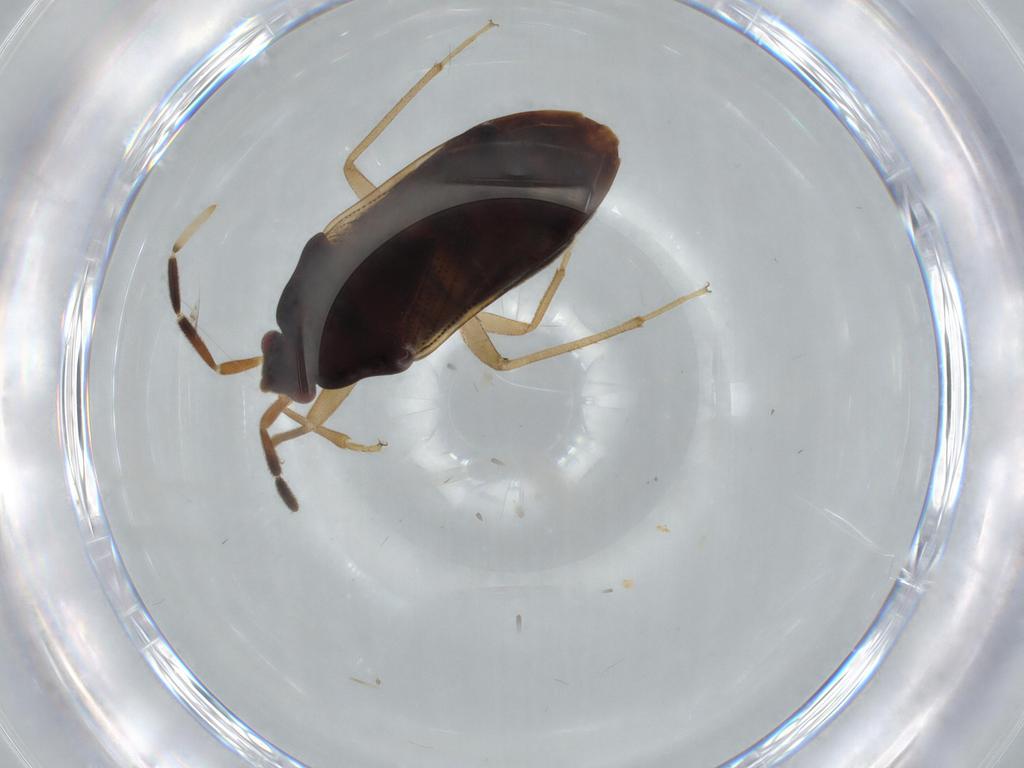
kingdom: Animalia
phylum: Arthropoda
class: Insecta
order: Hemiptera
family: Cicadellidae
